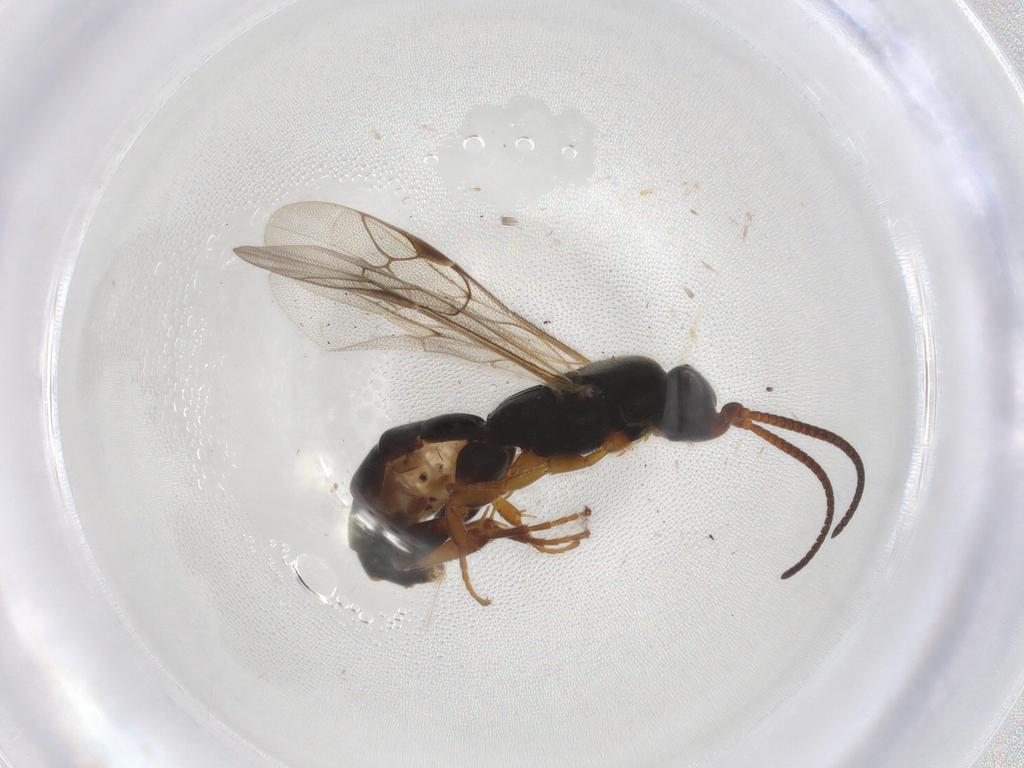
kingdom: Animalia
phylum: Arthropoda
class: Insecta
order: Hymenoptera
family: Ichneumonidae
